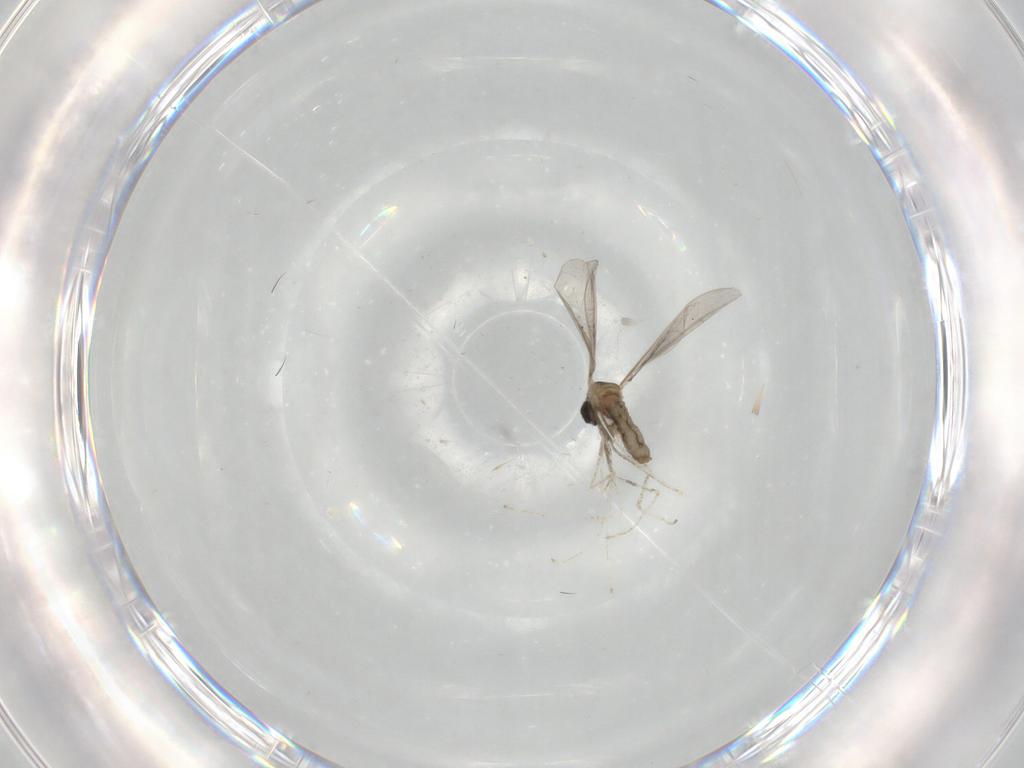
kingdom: Animalia
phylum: Arthropoda
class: Insecta
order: Diptera
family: Cecidomyiidae
